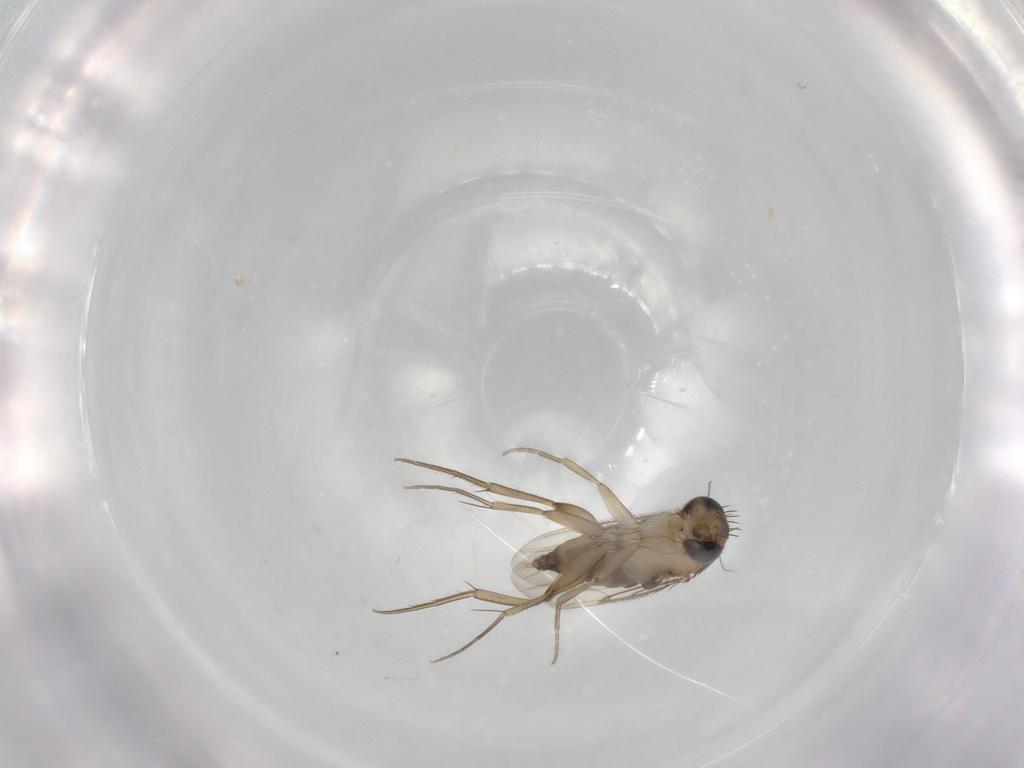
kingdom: Animalia
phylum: Arthropoda
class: Insecta
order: Diptera
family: Phoridae
